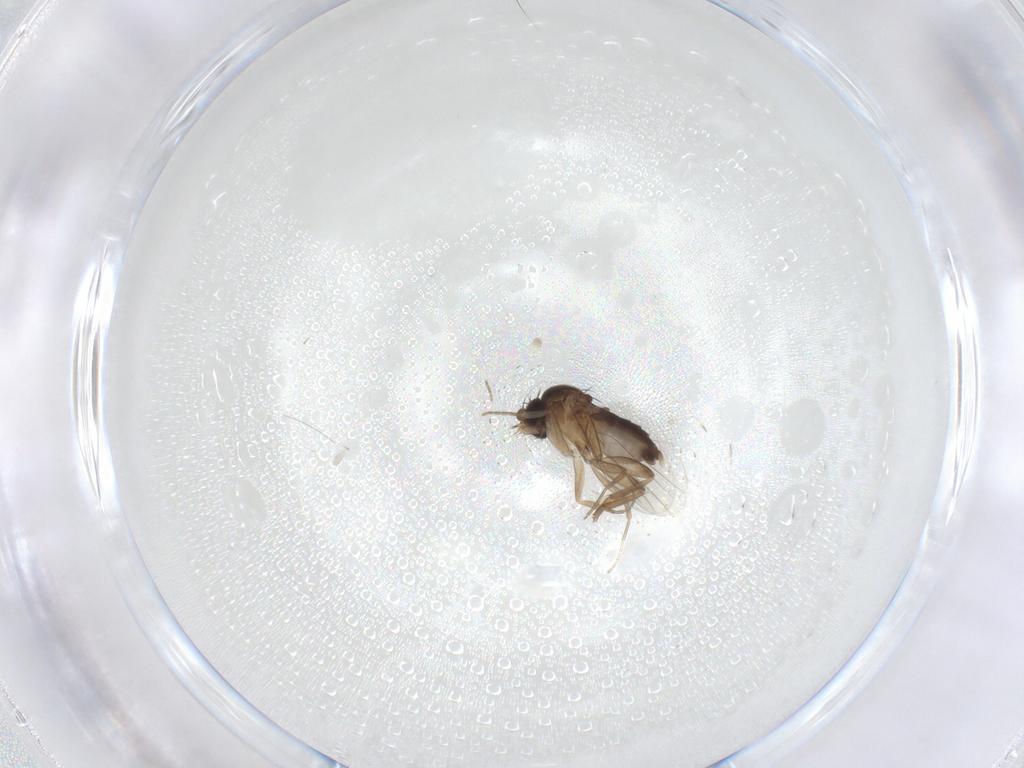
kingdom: Animalia
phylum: Arthropoda
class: Insecta
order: Diptera
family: Phoridae
